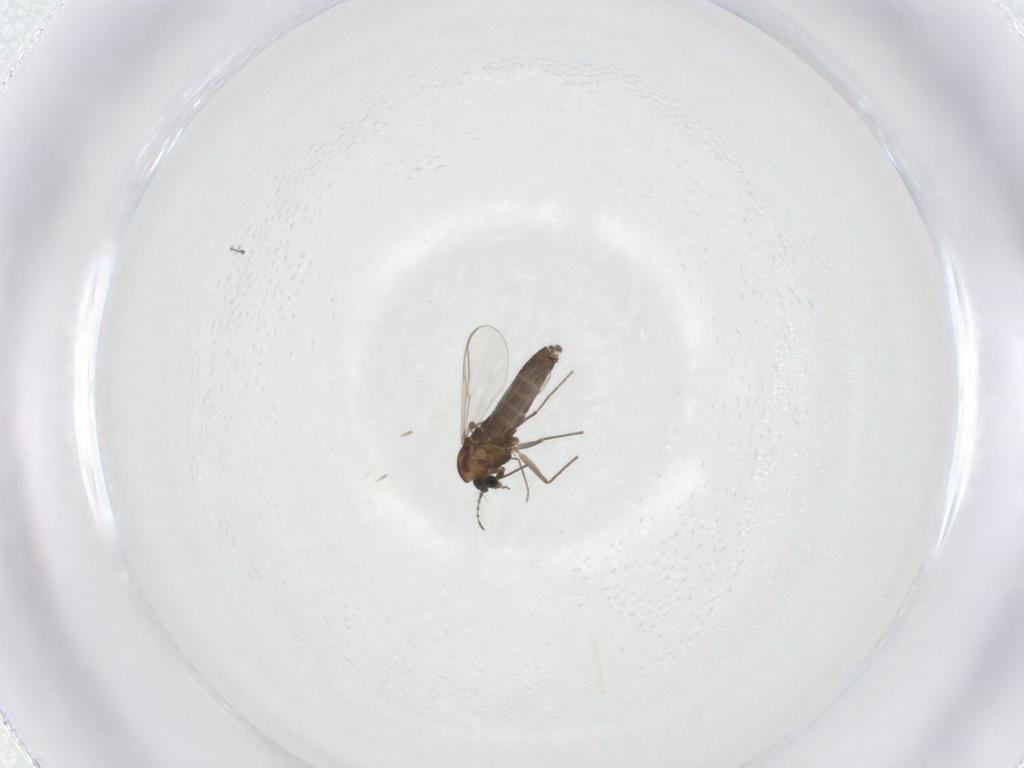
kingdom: Animalia
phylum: Arthropoda
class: Insecta
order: Diptera
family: Chironomidae
